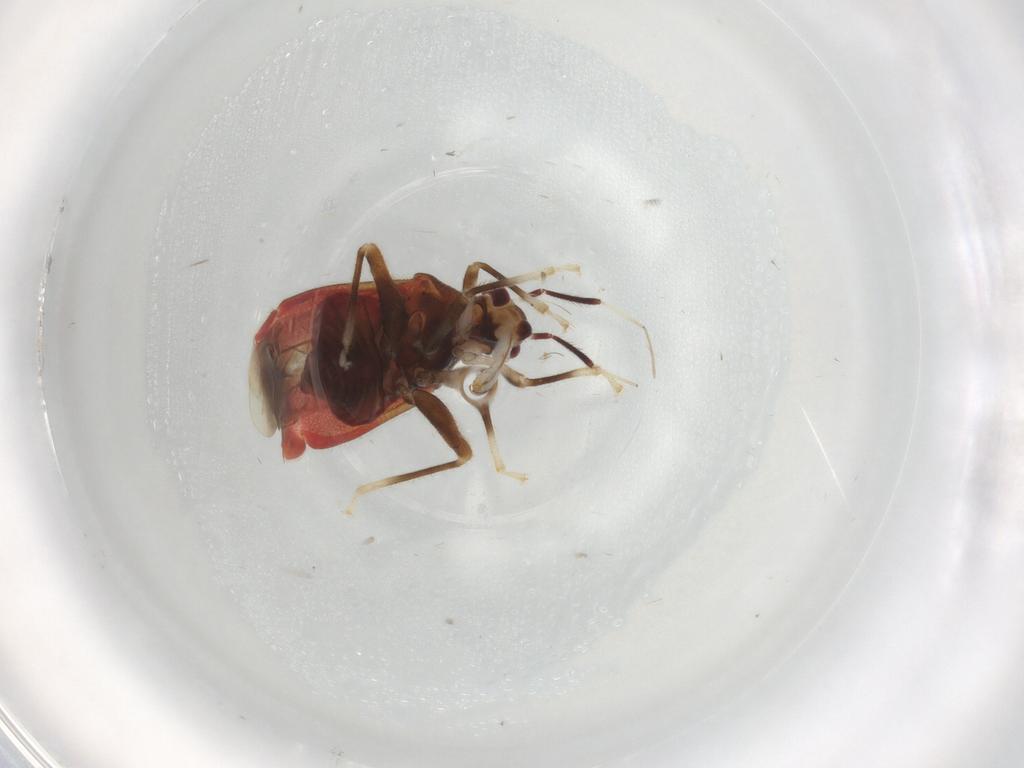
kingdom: Animalia
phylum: Arthropoda
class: Insecta
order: Hemiptera
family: Miridae
